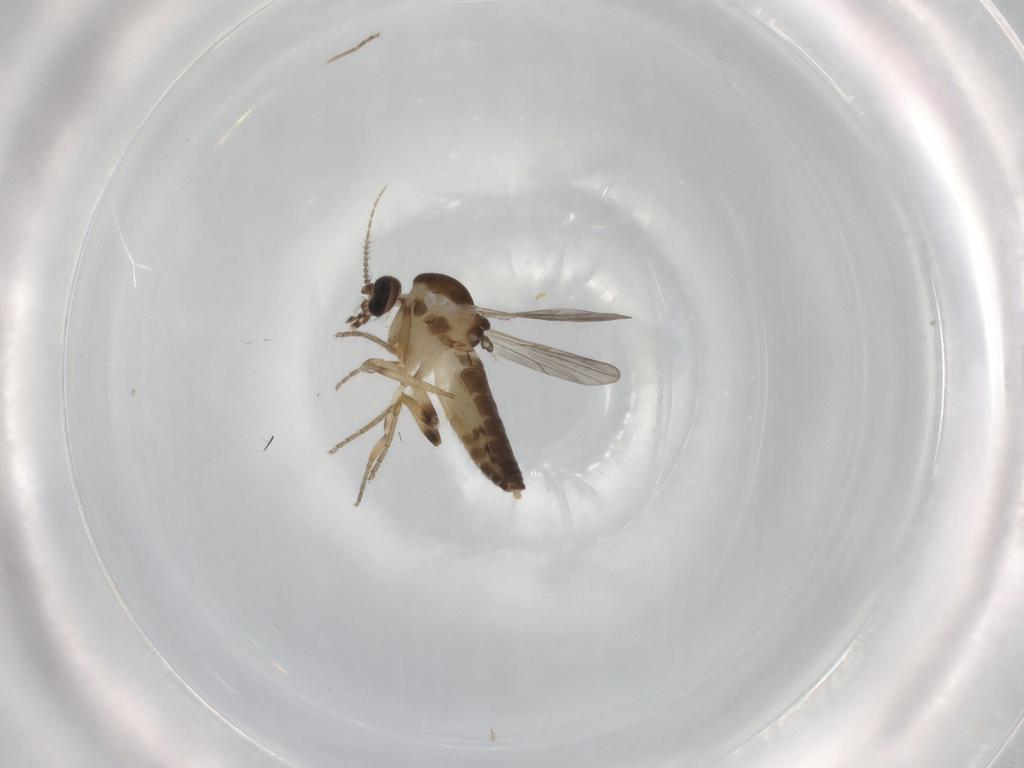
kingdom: Animalia
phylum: Arthropoda
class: Insecta
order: Diptera
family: Ceratopogonidae
